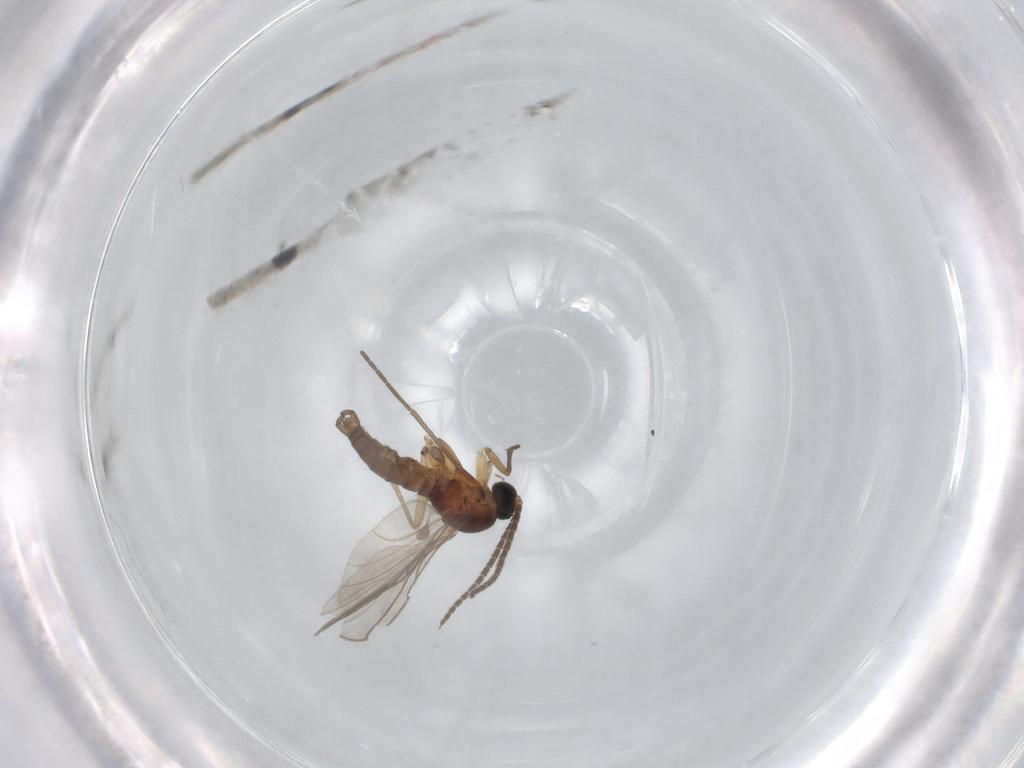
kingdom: Animalia
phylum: Arthropoda
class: Insecta
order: Diptera
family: Sciaridae
